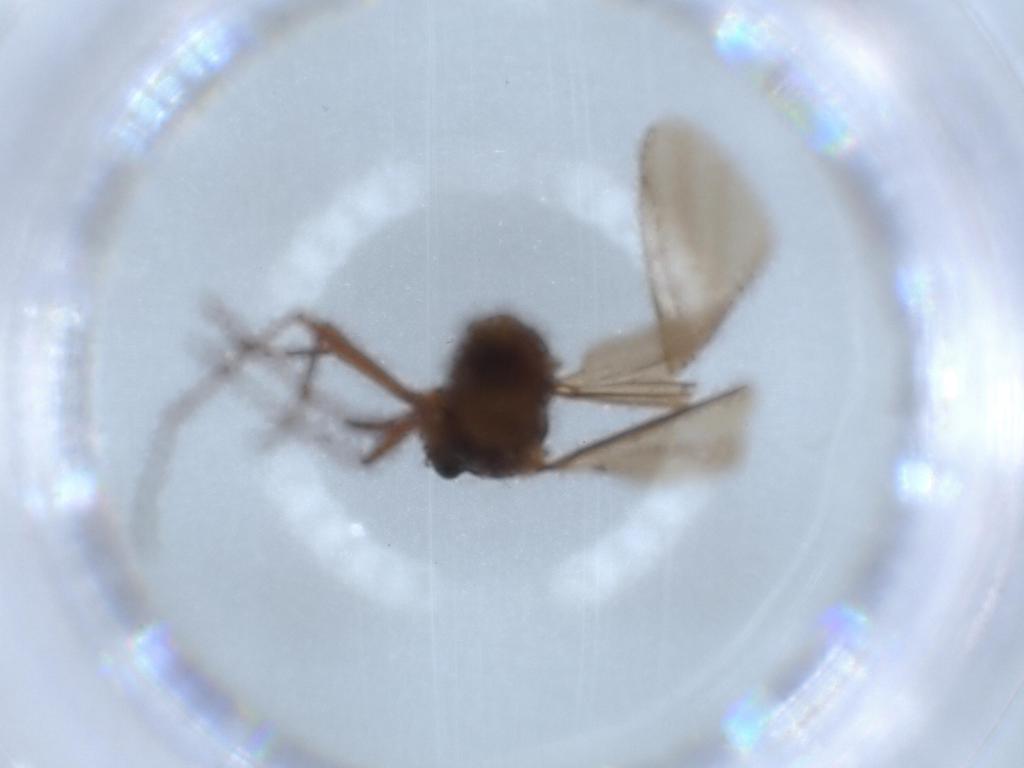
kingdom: Animalia
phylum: Arthropoda
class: Insecta
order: Diptera
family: Sciaridae
